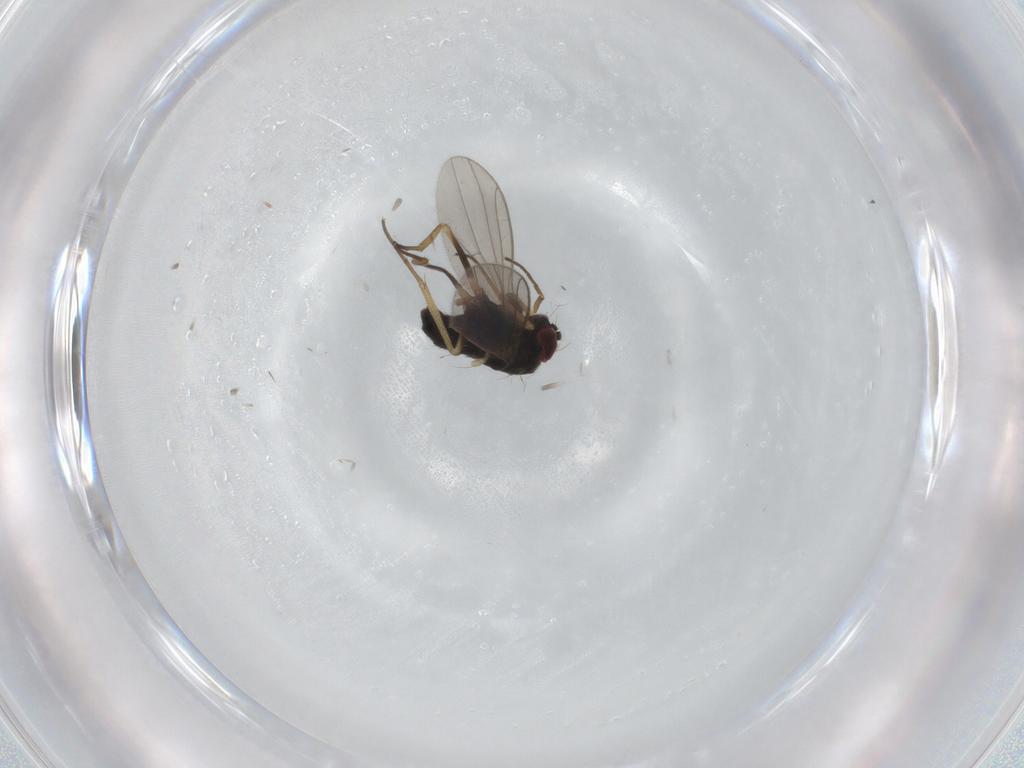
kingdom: Animalia
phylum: Arthropoda
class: Insecta
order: Diptera
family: Dolichopodidae
